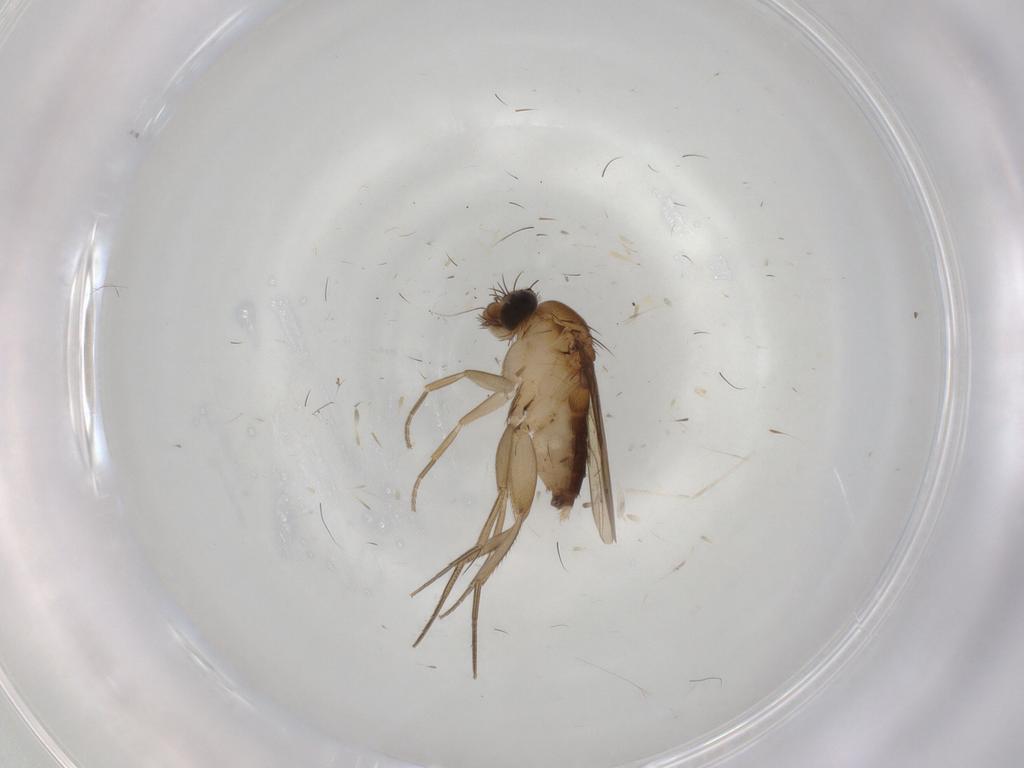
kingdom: Animalia
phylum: Arthropoda
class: Insecta
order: Diptera
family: Phoridae
